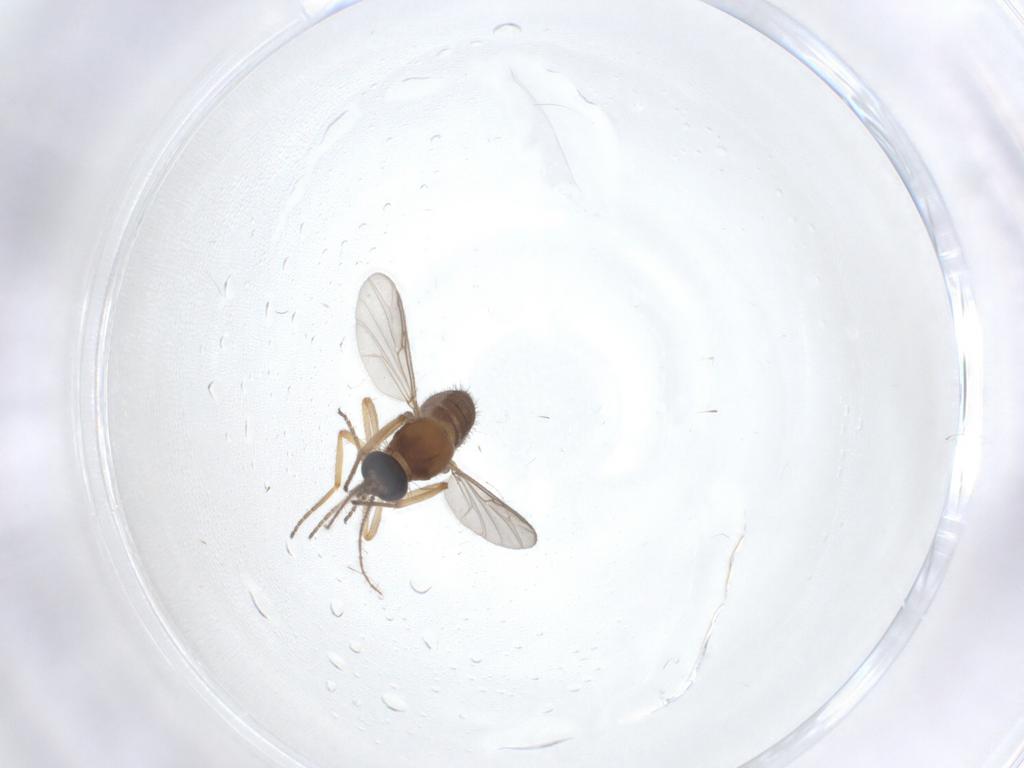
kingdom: Animalia
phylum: Arthropoda
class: Insecta
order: Diptera
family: Ceratopogonidae
